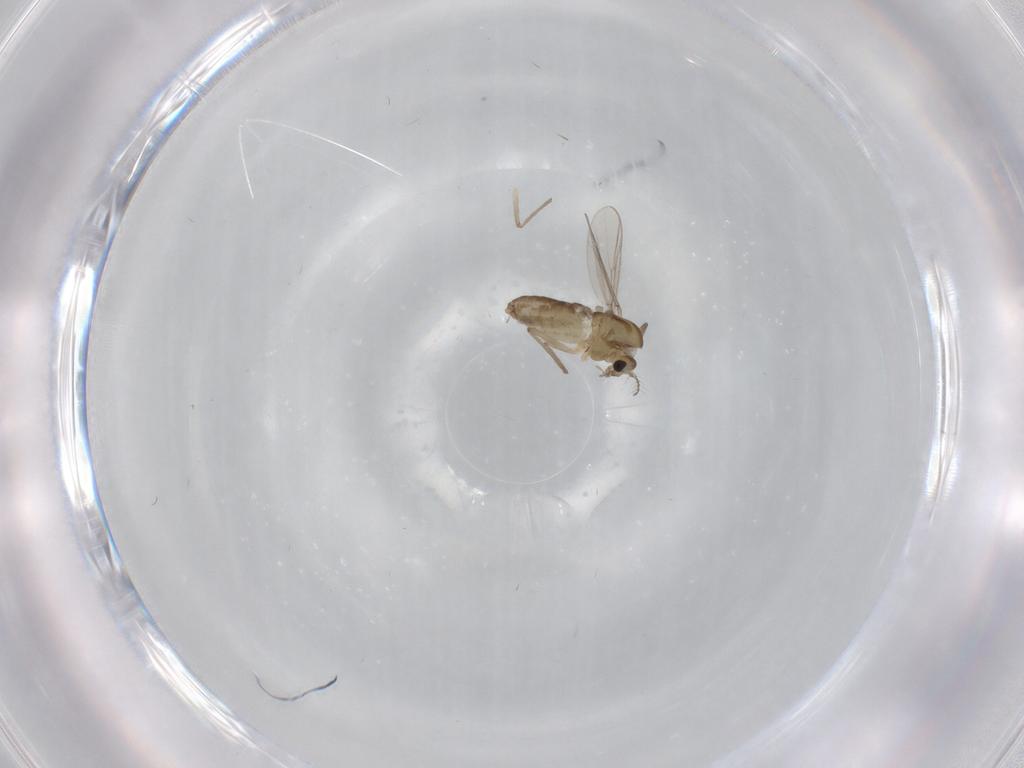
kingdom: Animalia
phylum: Arthropoda
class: Insecta
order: Diptera
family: Chironomidae
